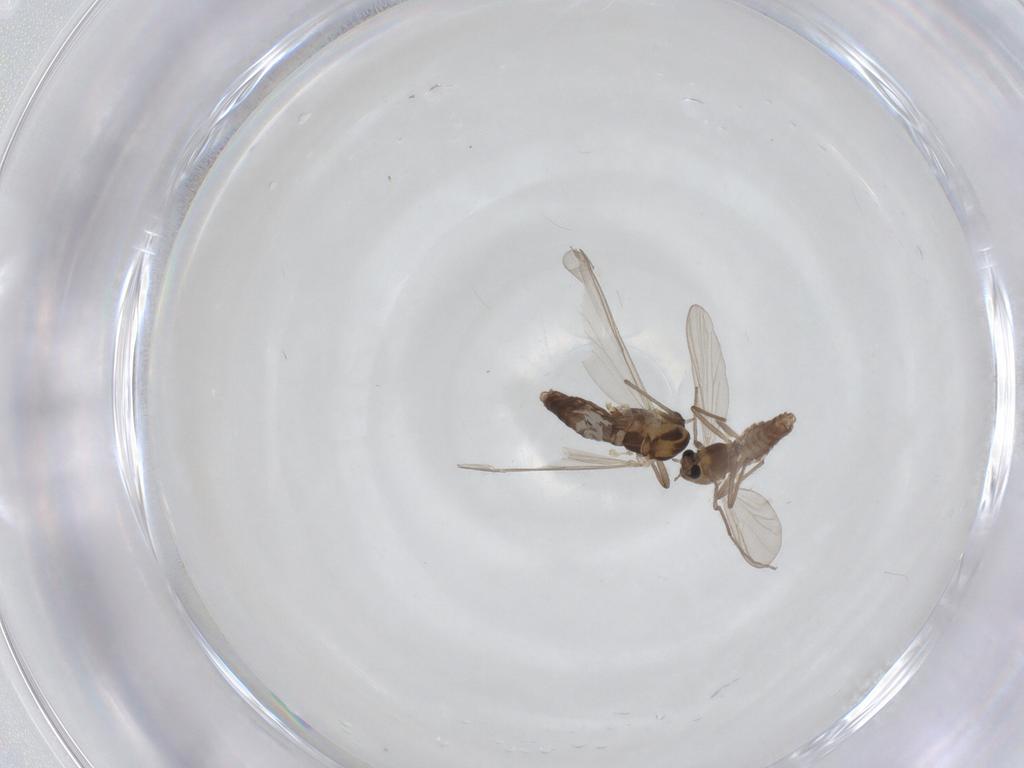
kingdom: Animalia
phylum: Arthropoda
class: Insecta
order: Diptera
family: Chironomidae
